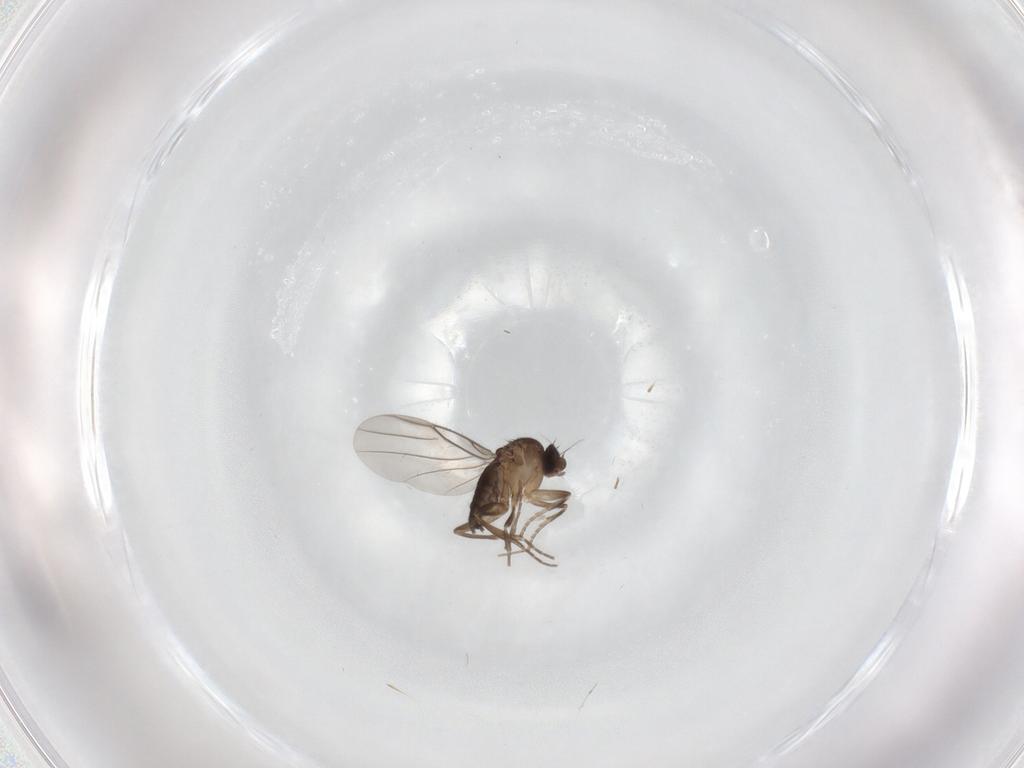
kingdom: Animalia
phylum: Arthropoda
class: Insecta
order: Diptera
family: Phoridae
